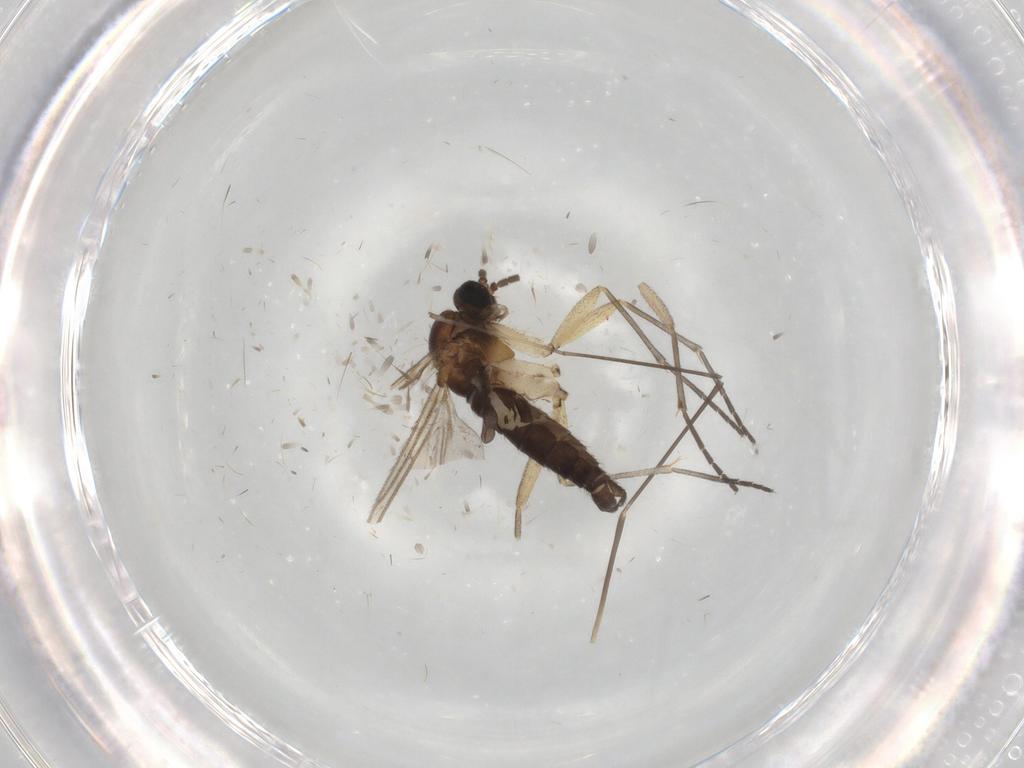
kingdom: Animalia
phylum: Arthropoda
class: Insecta
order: Diptera
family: Sciaridae
